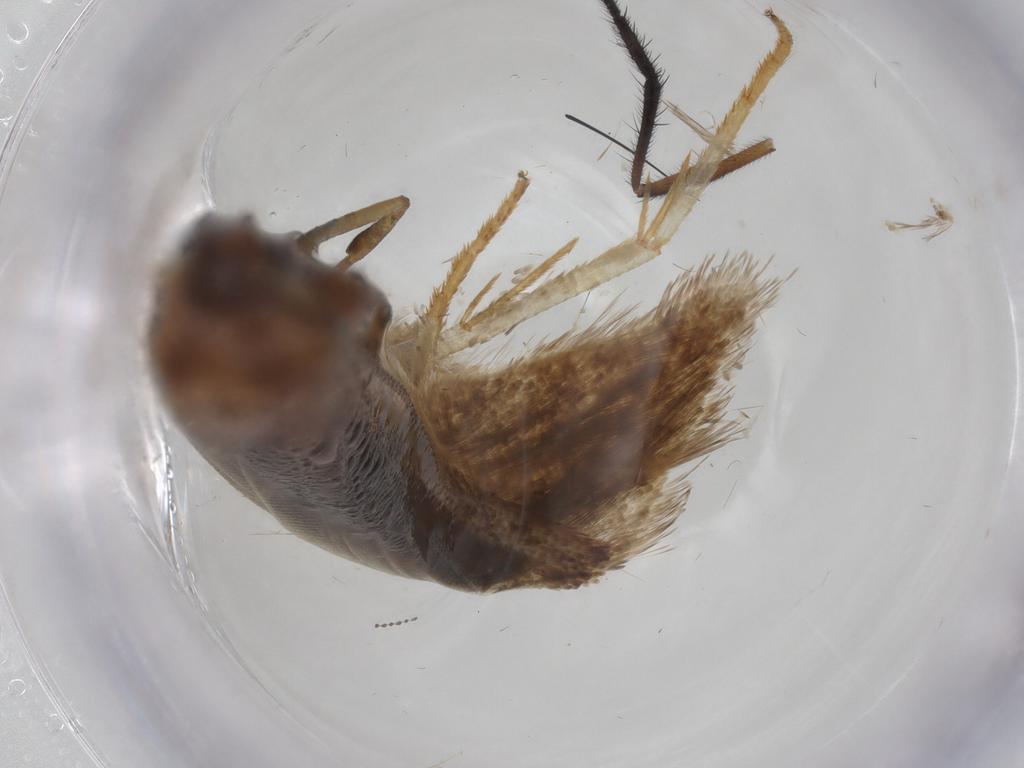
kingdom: Animalia
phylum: Arthropoda
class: Insecta
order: Lepidoptera
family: Blastobasidae
